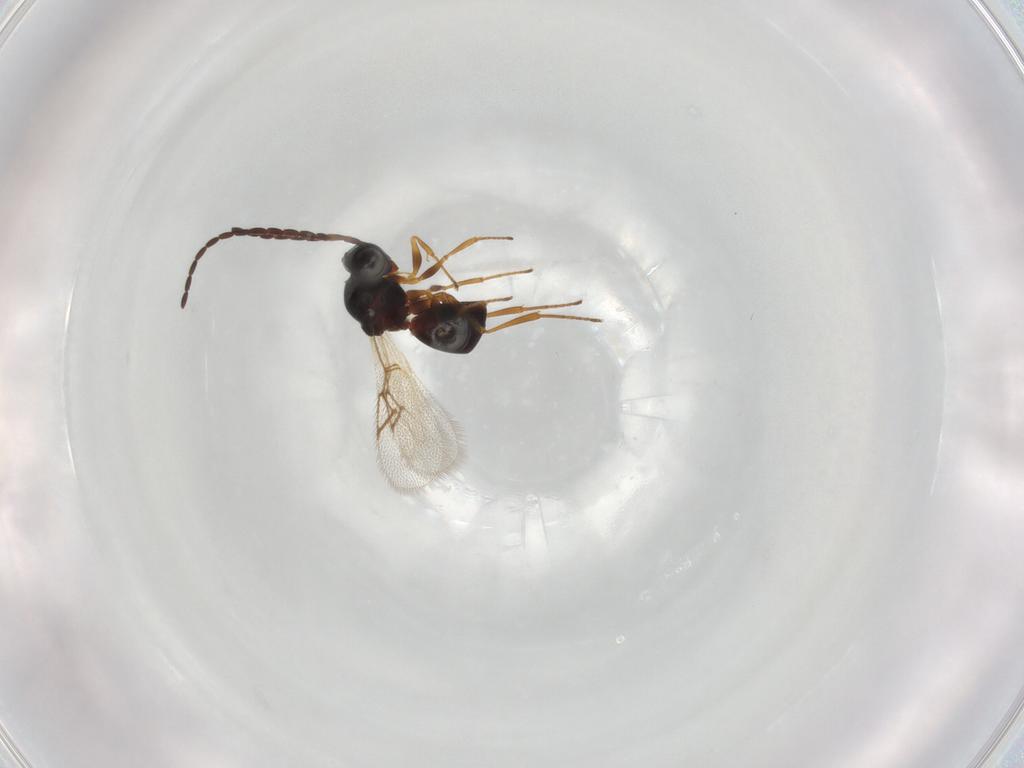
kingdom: Animalia
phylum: Arthropoda
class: Insecta
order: Hymenoptera
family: Figitidae
